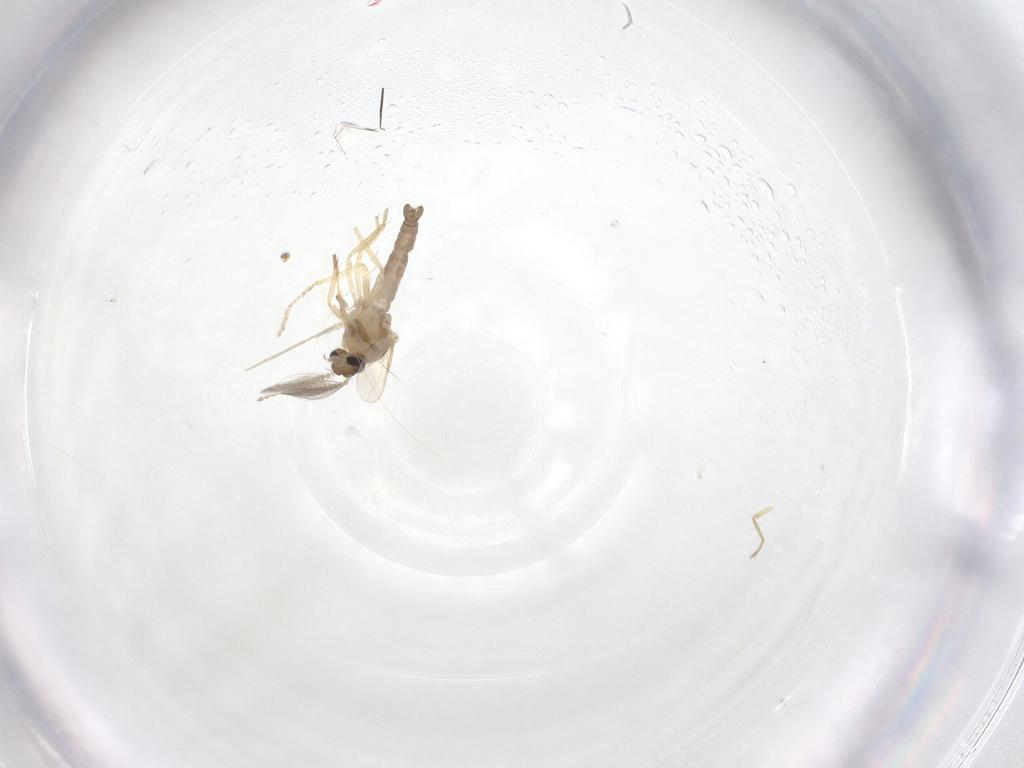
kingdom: Animalia
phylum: Arthropoda
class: Insecta
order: Diptera
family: Ceratopogonidae
